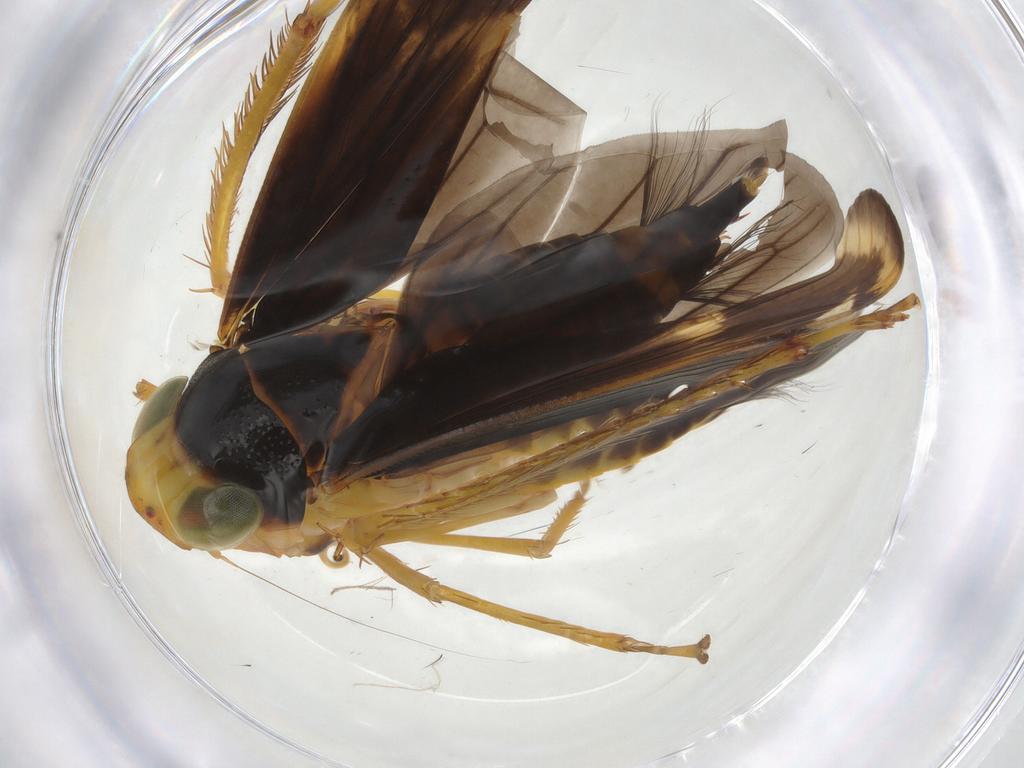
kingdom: Animalia
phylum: Arthropoda
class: Insecta
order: Hemiptera
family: Cicadellidae
